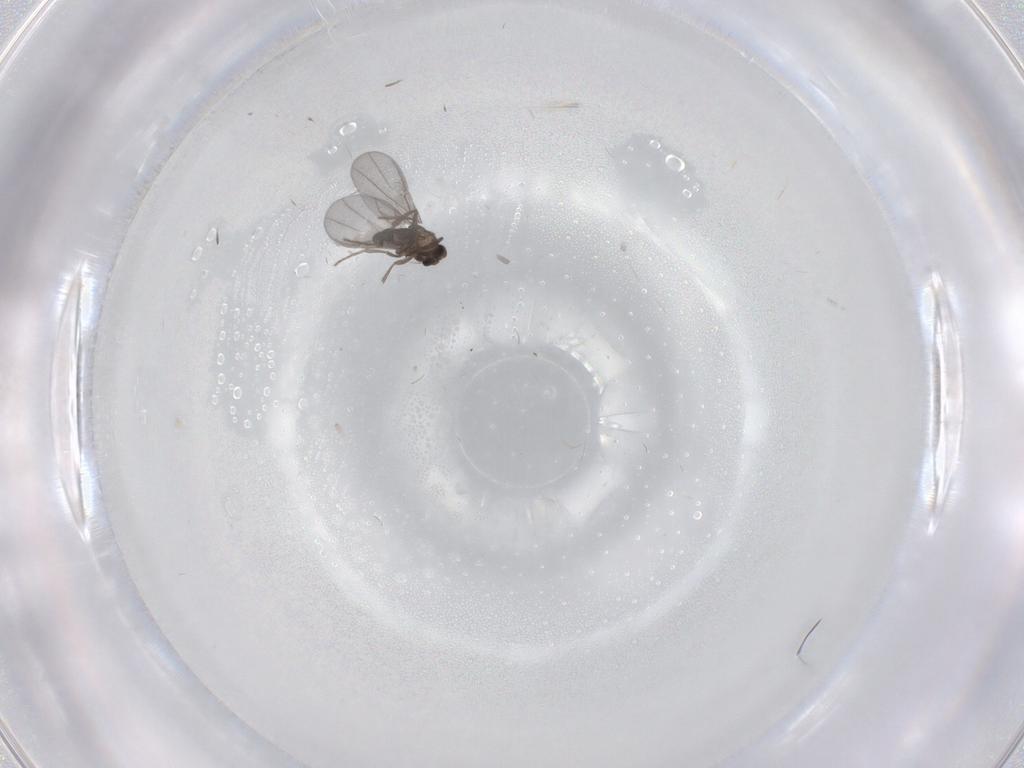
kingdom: Animalia
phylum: Arthropoda
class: Insecta
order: Diptera
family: Phoridae
